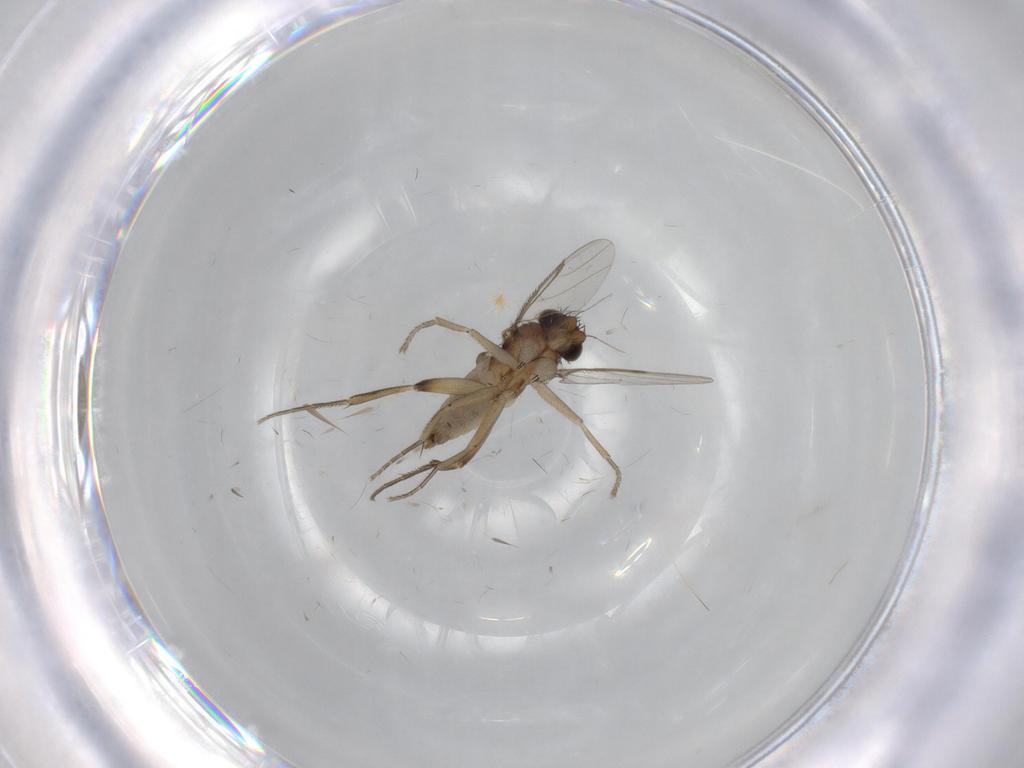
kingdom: Animalia
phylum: Arthropoda
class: Insecta
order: Diptera
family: Phoridae
